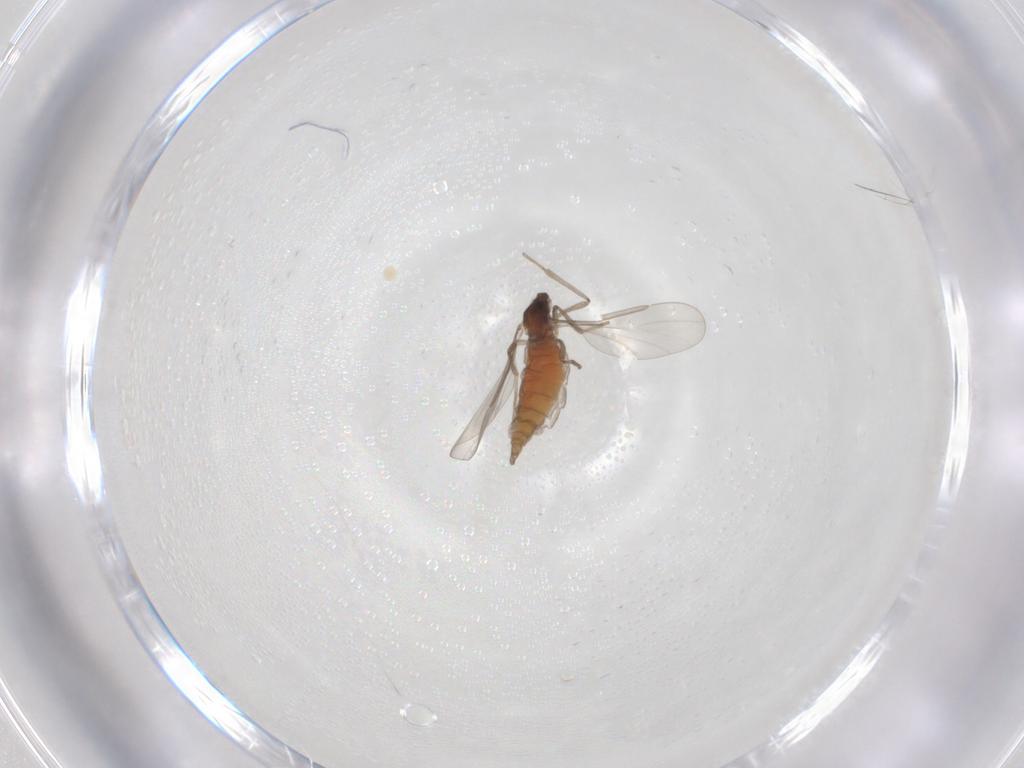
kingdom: Animalia
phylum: Arthropoda
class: Insecta
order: Diptera
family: Cecidomyiidae
